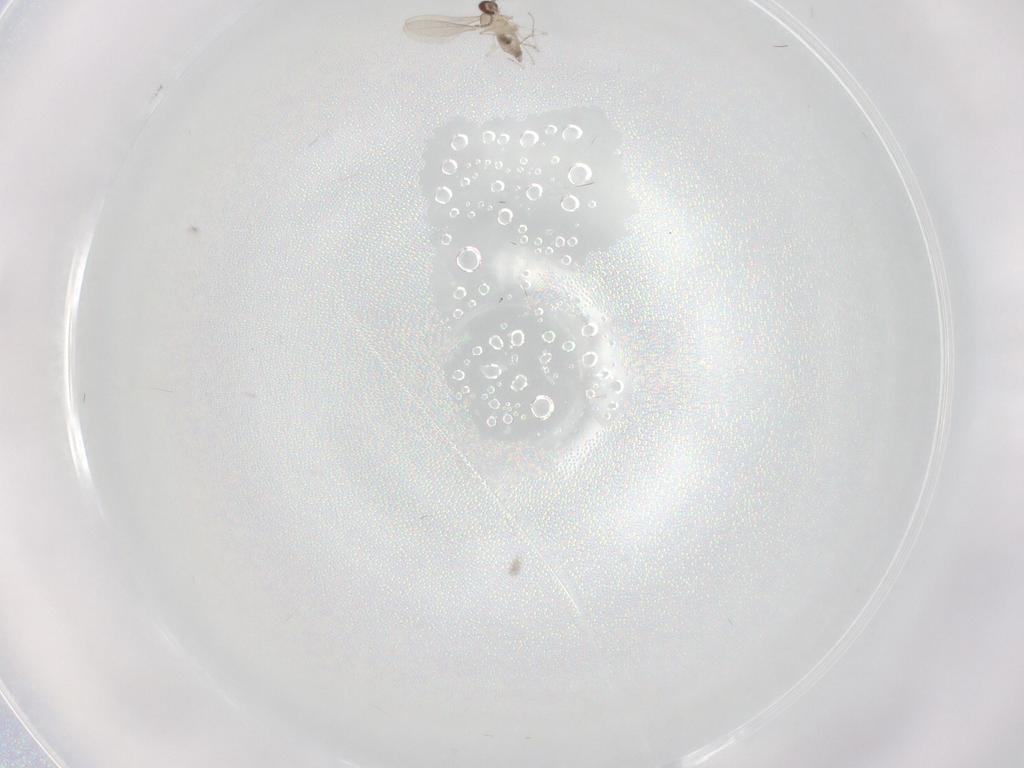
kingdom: Animalia
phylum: Arthropoda
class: Insecta
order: Diptera
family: Cecidomyiidae
